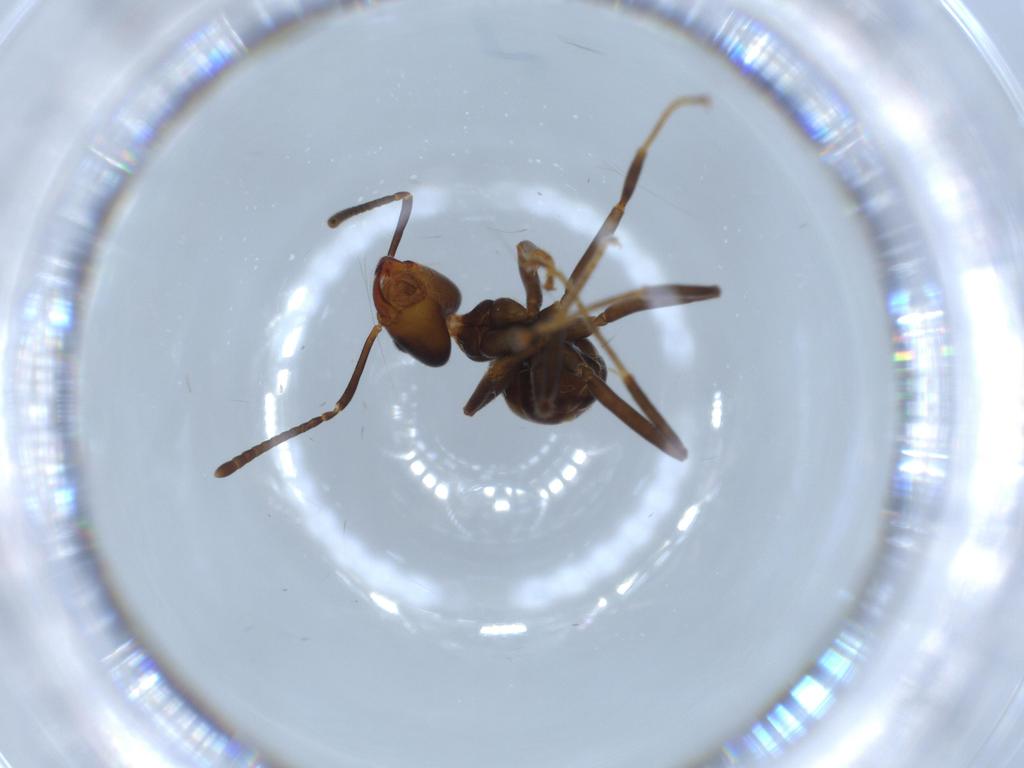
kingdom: Animalia
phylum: Arthropoda
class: Insecta
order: Hymenoptera
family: Formicidae
